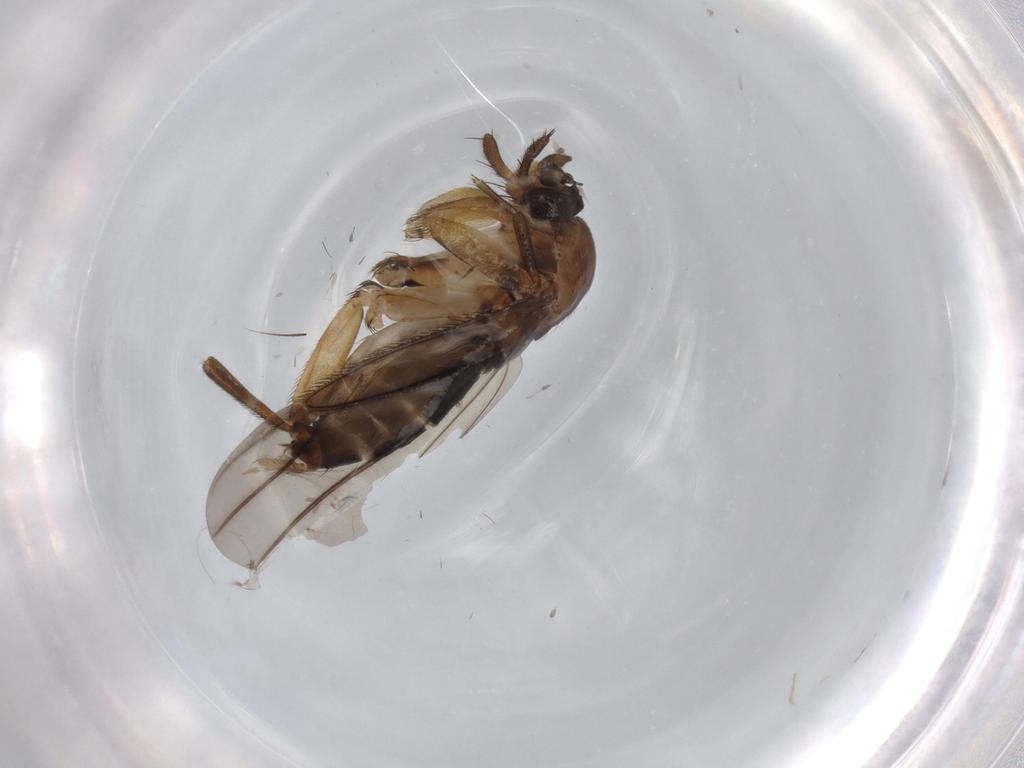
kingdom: Animalia
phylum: Arthropoda
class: Insecta
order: Diptera
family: Phoridae
